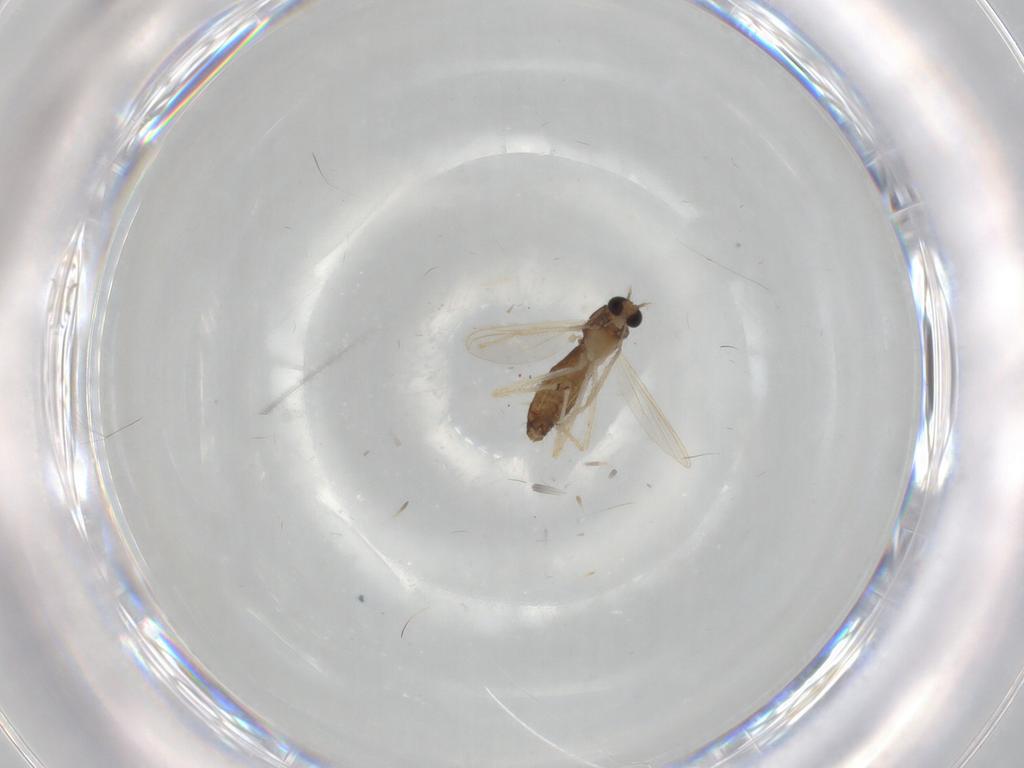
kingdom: Animalia
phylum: Arthropoda
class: Insecta
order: Diptera
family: Chironomidae
